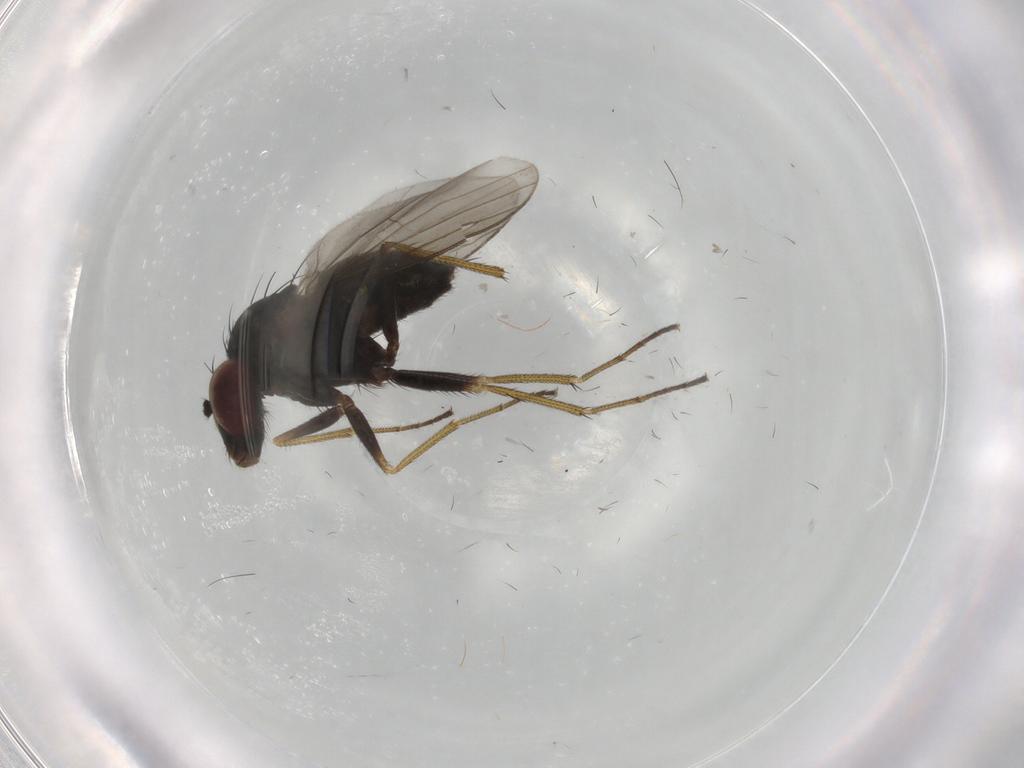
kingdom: Animalia
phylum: Arthropoda
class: Insecta
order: Diptera
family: Dolichopodidae
